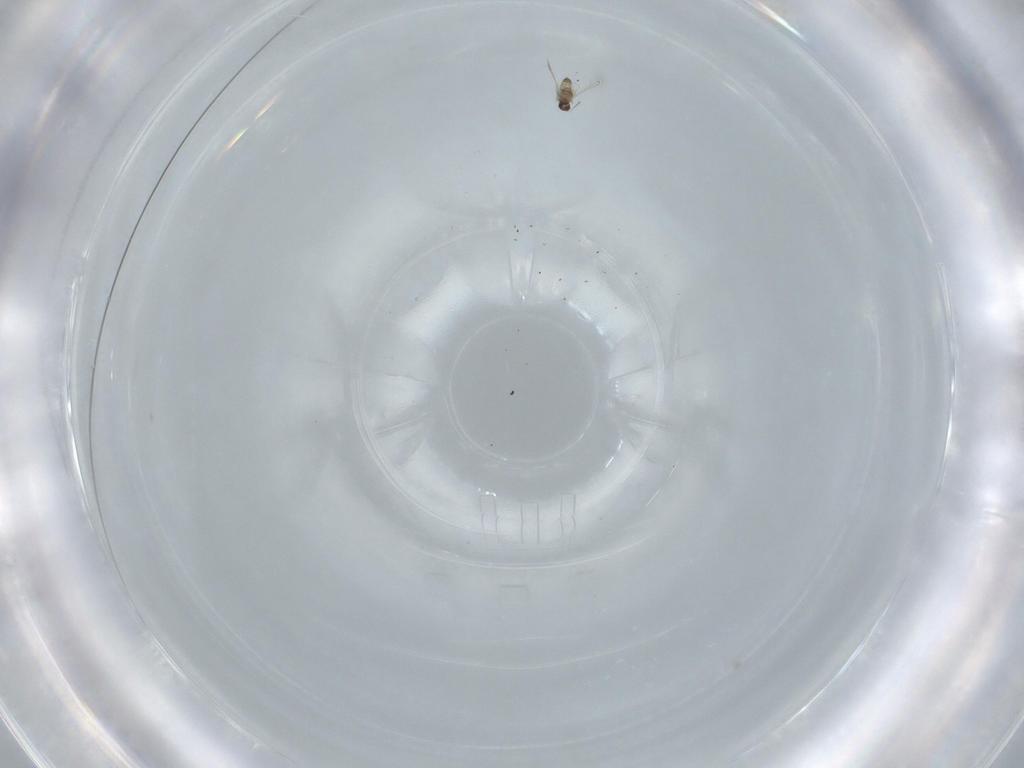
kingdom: Animalia
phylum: Arthropoda
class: Insecta
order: Hymenoptera
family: Mymaridae
